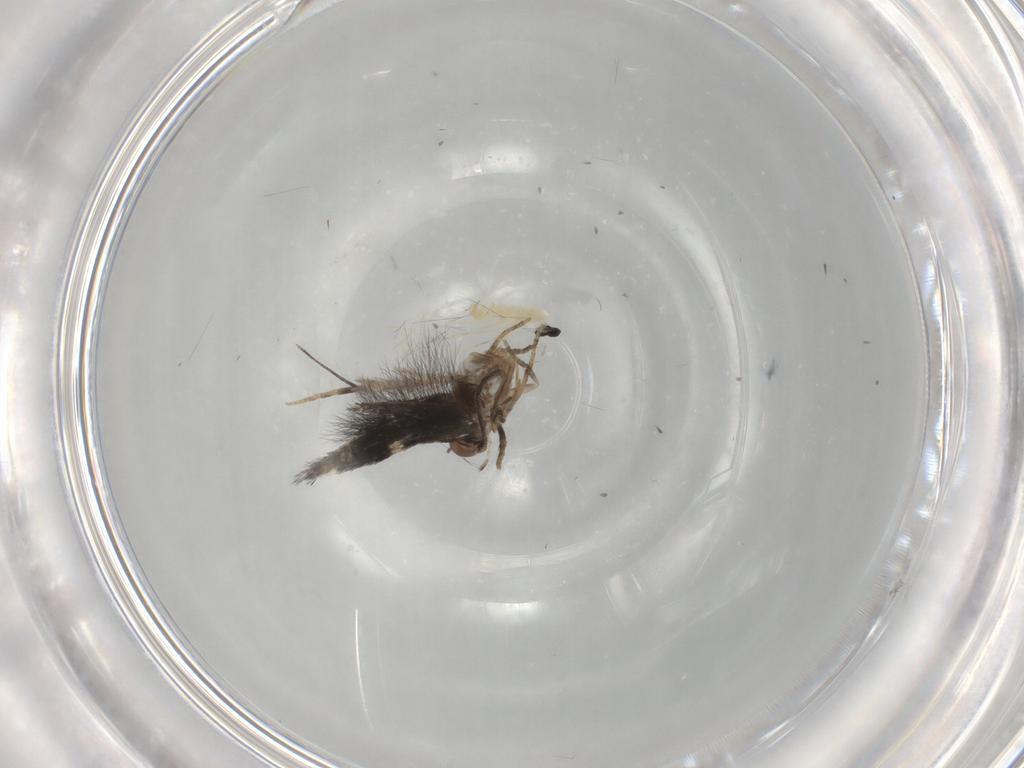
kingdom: Animalia
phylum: Arthropoda
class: Insecta
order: Diptera
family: Cecidomyiidae
